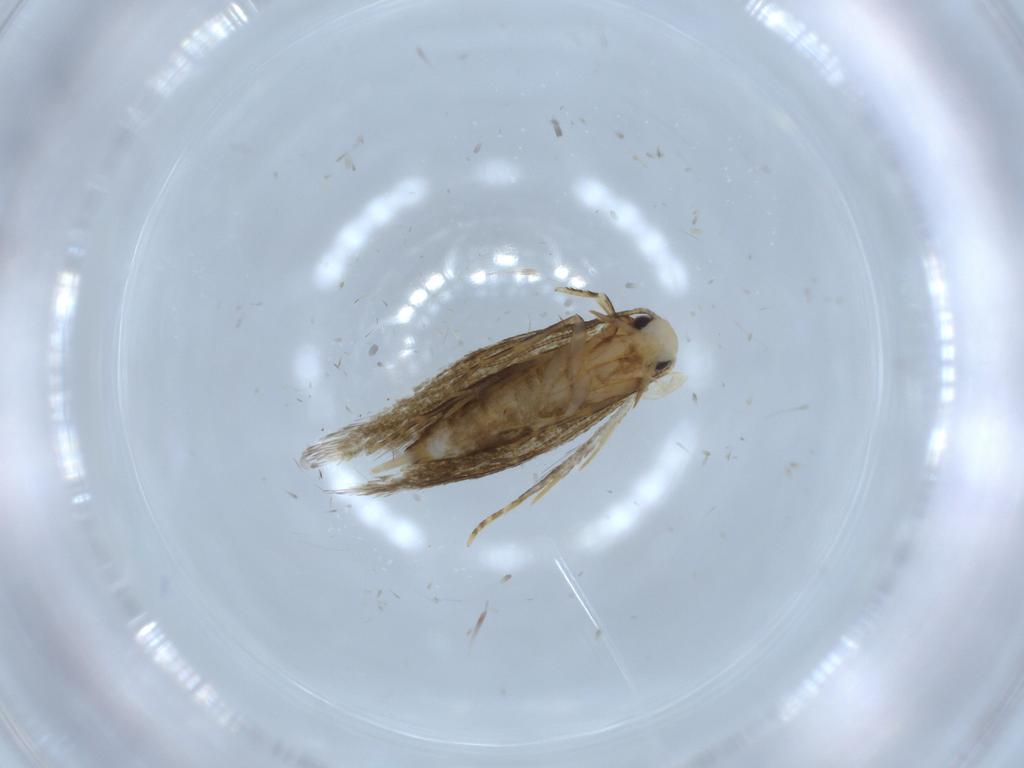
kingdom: Animalia
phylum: Arthropoda
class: Insecta
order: Lepidoptera
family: Tineidae
